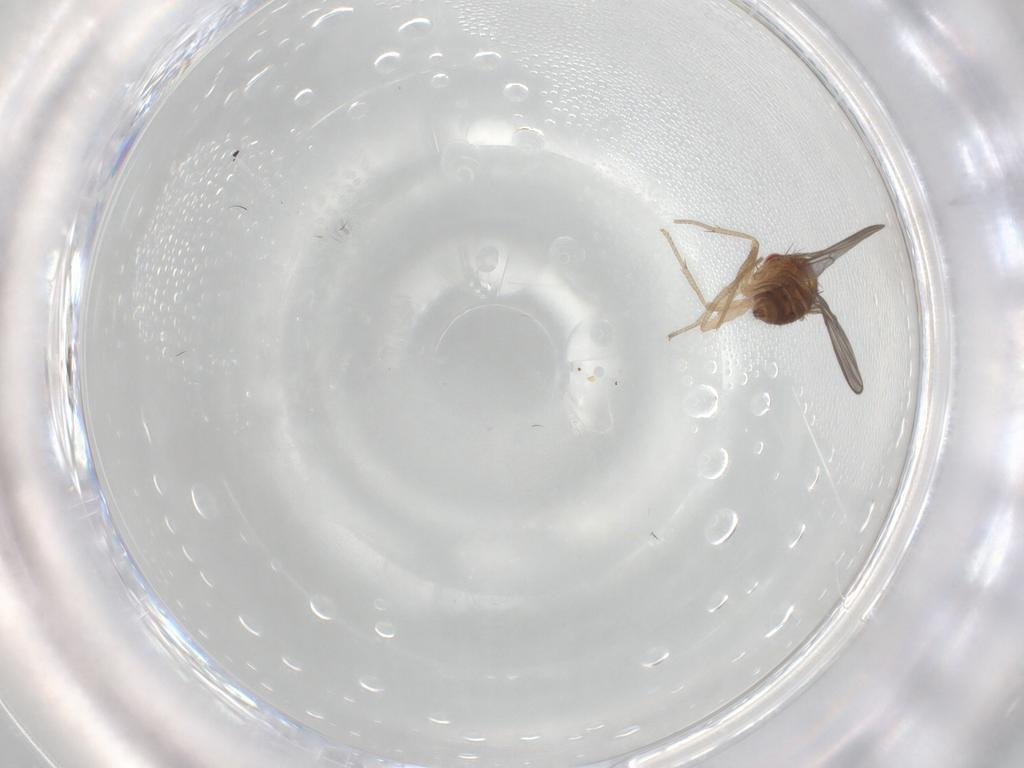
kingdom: Animalia
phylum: Arthropoda
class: Insecta
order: Diptera
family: Drosophilidae
